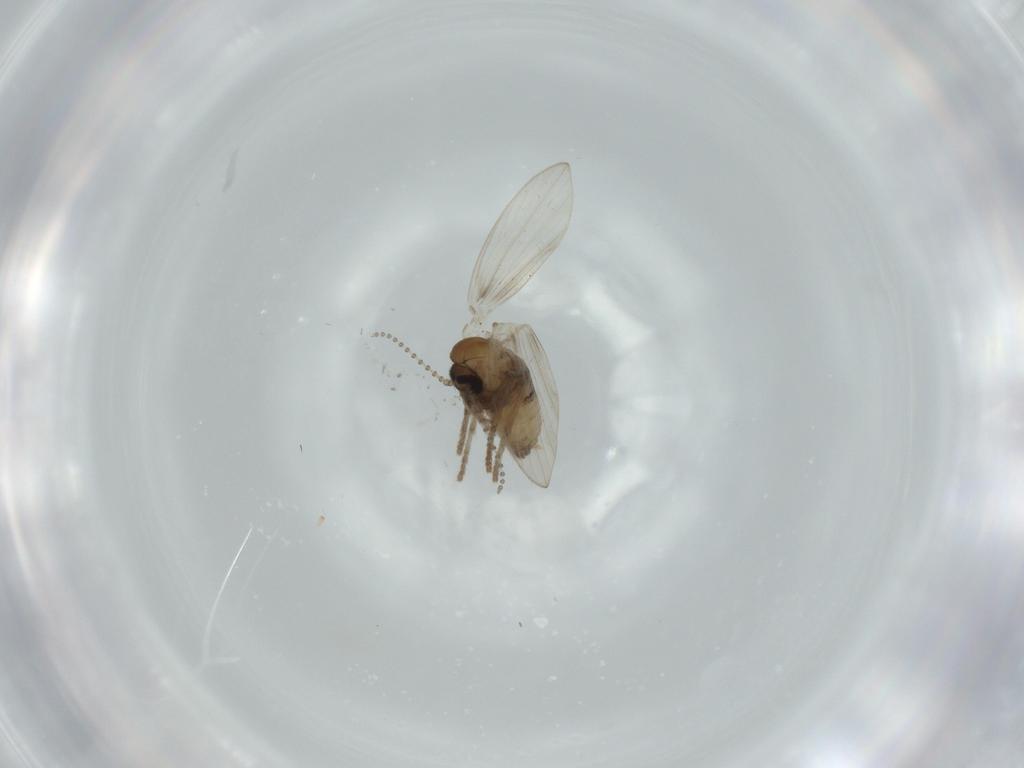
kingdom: Animalia
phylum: Arthropoda
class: Insecta
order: Diptera
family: Psychodidae
